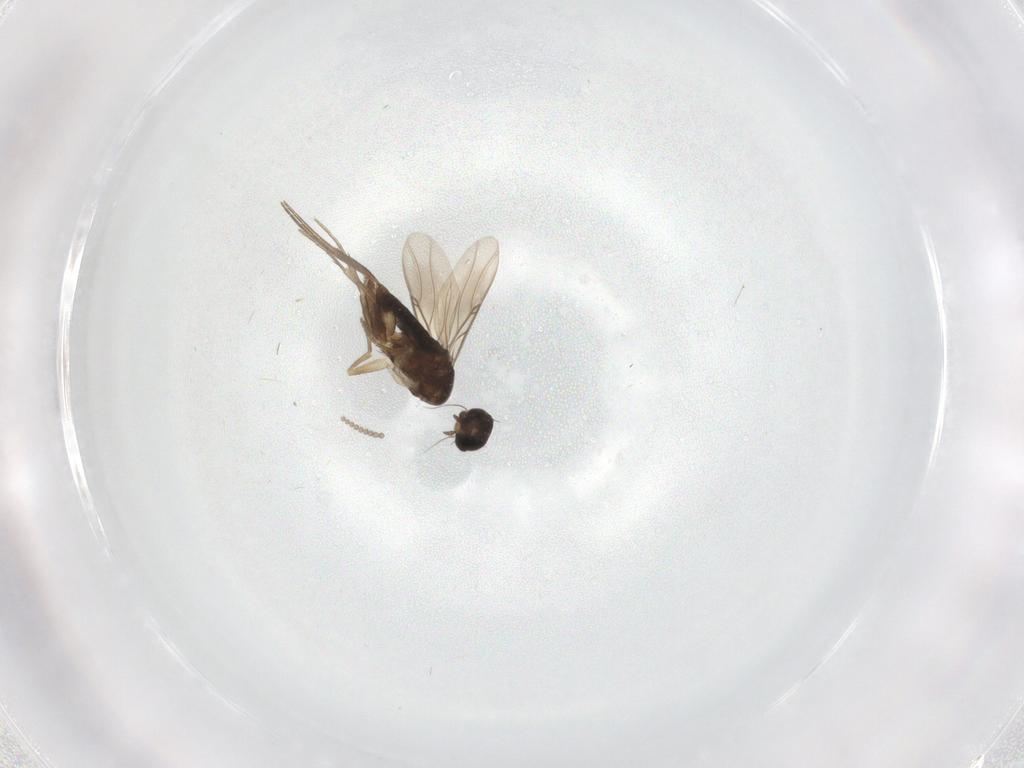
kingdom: Animalia
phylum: Arthropoda
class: Insecta
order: Diptera
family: Phoridae
